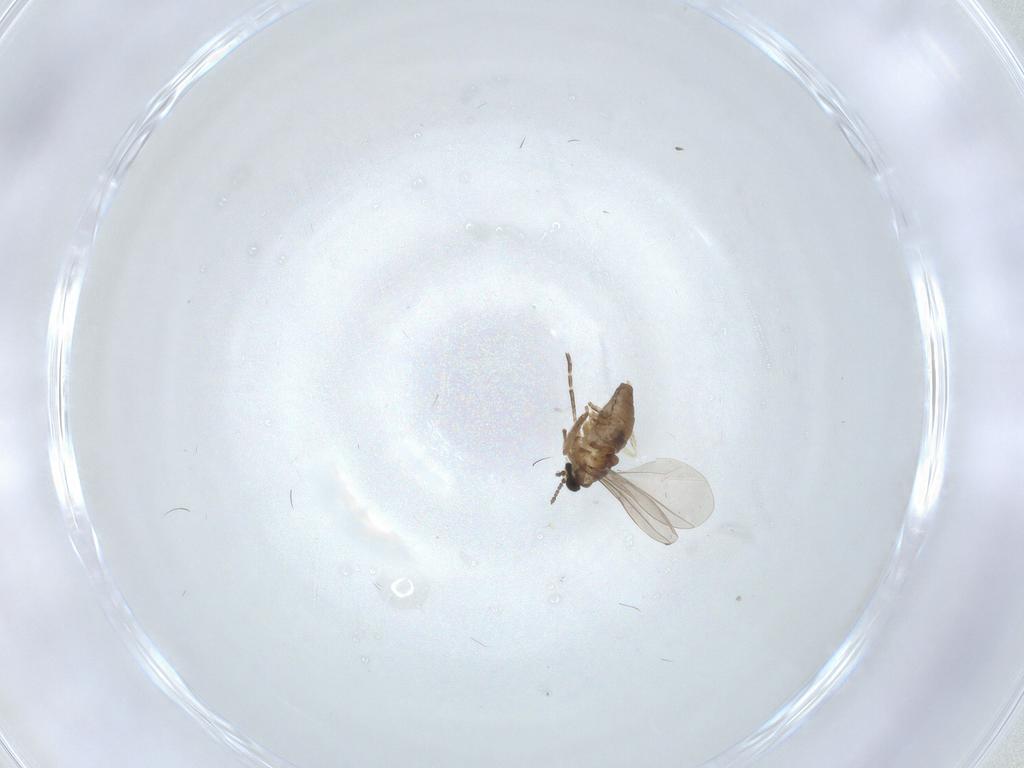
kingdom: Animalia
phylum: Arthropoda
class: Insecta
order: Diptera
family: Cecidomyiidae
